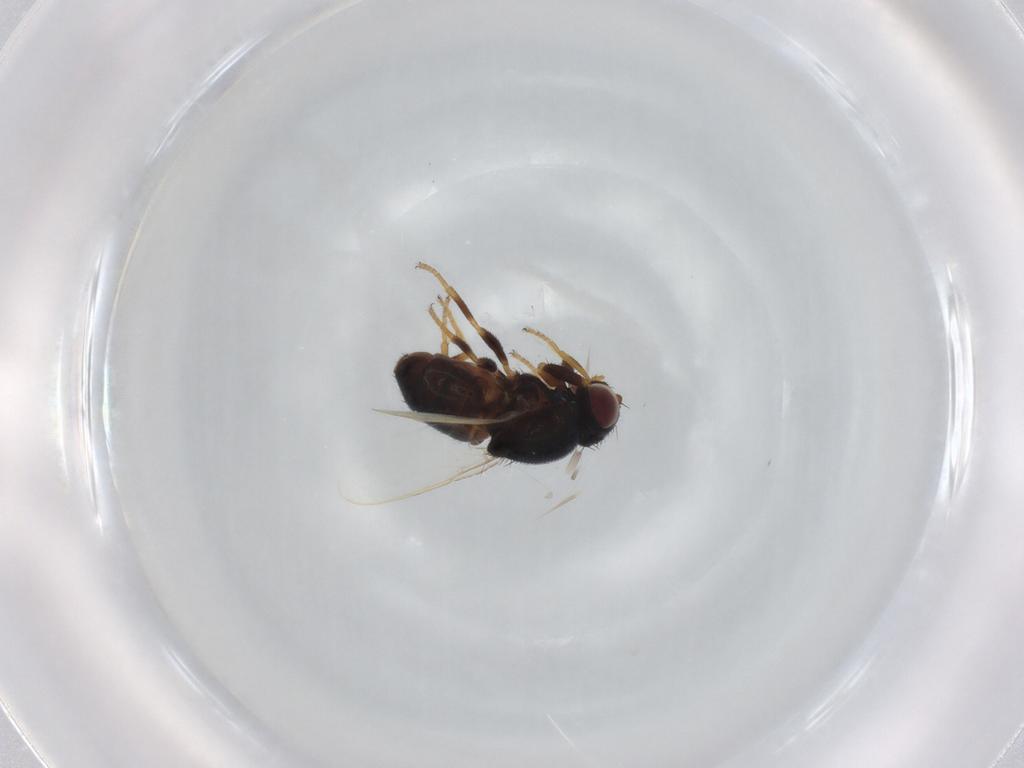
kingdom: Animalia
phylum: Arthropoda
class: Insecta
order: Diptera
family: Chloropidae
